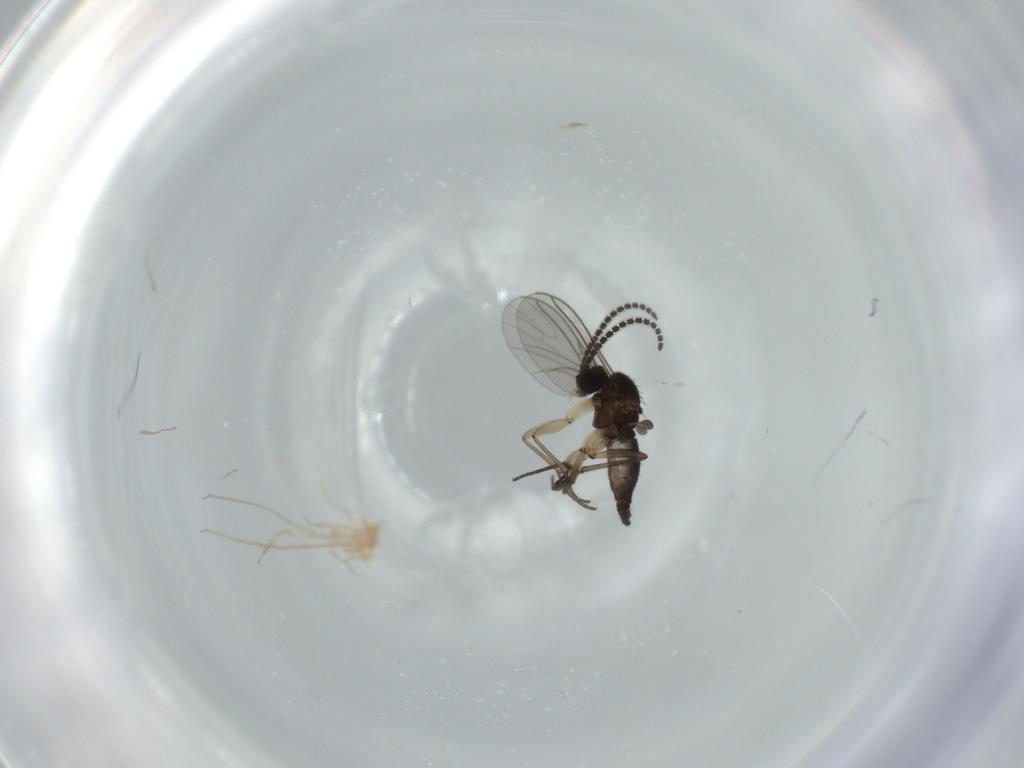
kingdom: Animalia
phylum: Arthropoda
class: Insecta
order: Diptera
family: Sciaridae
